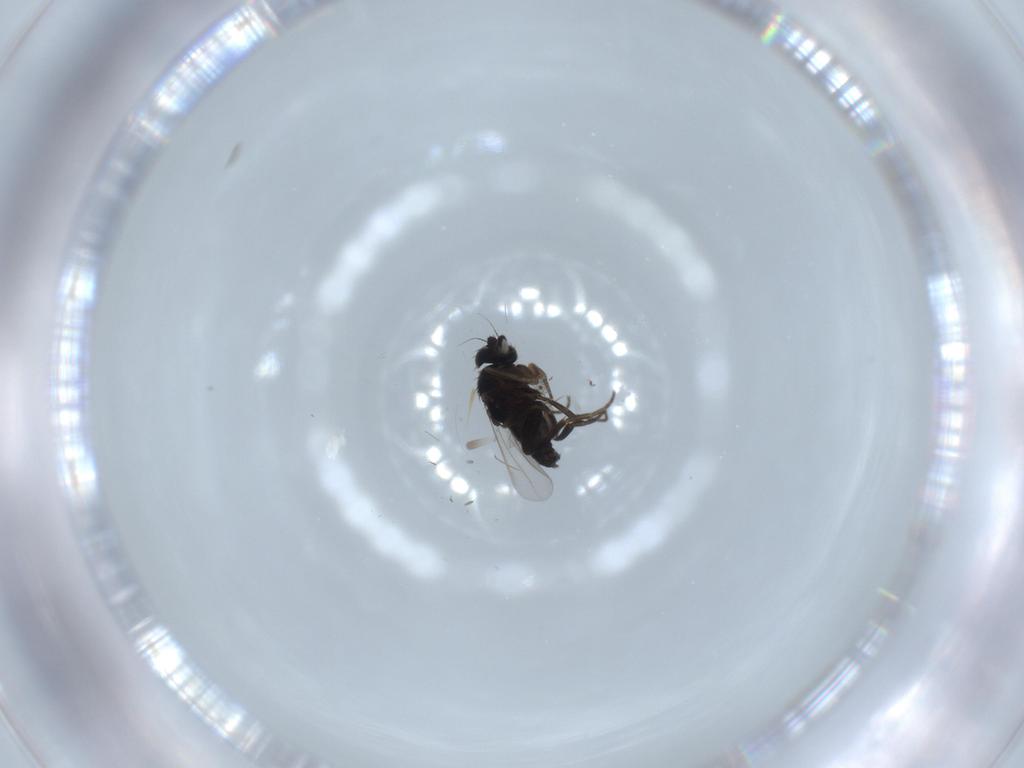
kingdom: Animalia
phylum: Arthropoda
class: Insecta
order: Diptera
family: Phoridae
